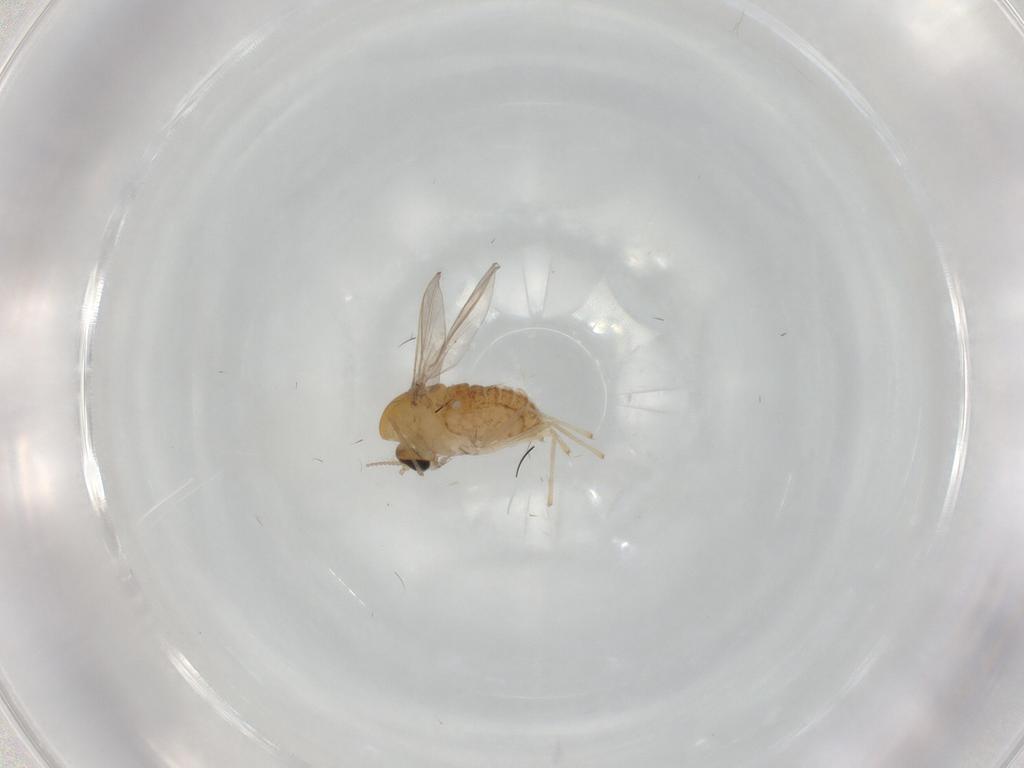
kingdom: Animalia
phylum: Arthropoda
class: Insecta
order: Diptera
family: Chironomidae
